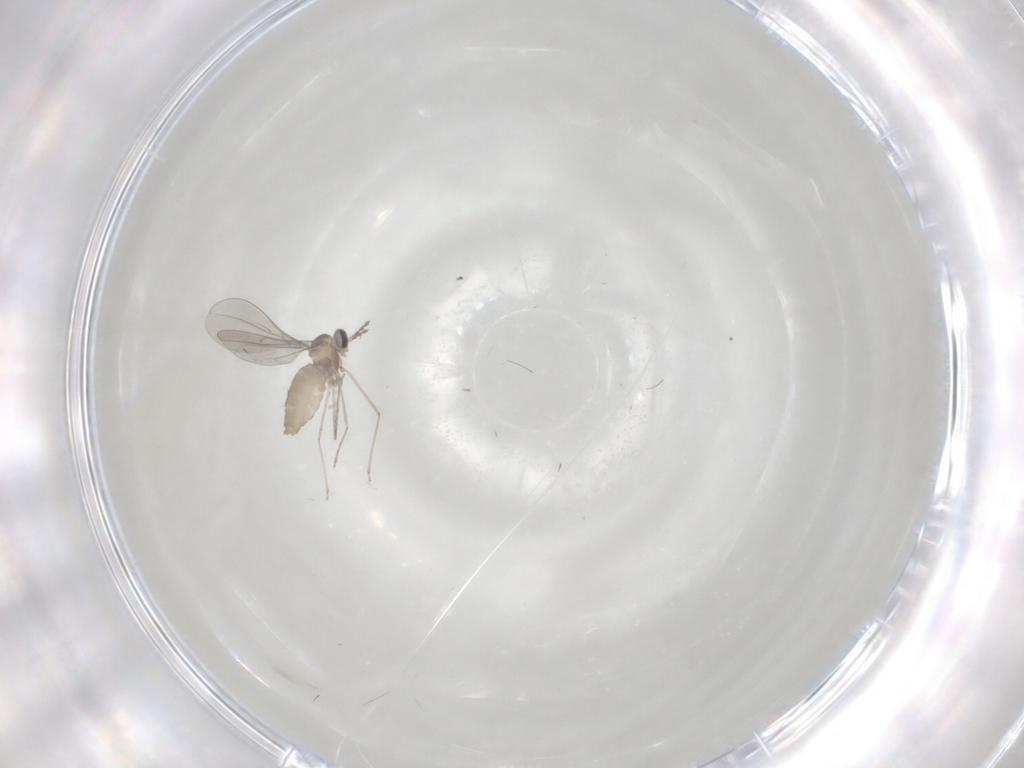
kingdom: Animalia
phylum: Arthropoda
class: Insecta
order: Diptera
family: Cecidomyiidae
